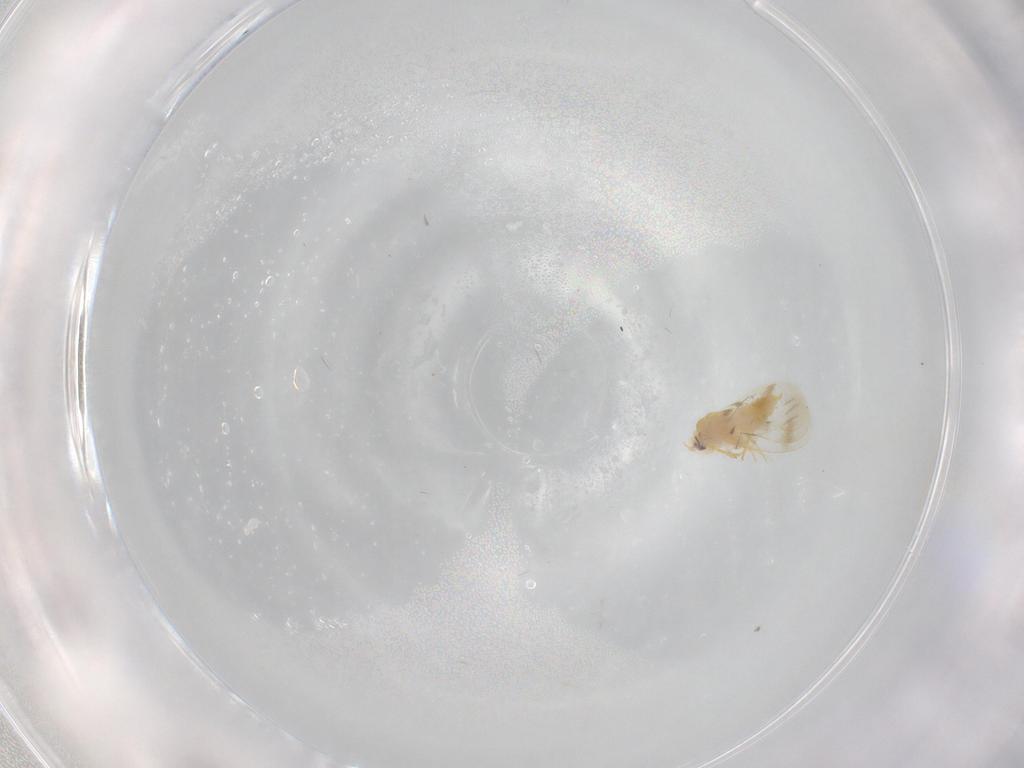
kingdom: Animalia
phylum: Arthropoda
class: Insecta
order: Hemiptera
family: Aleyrodidae
